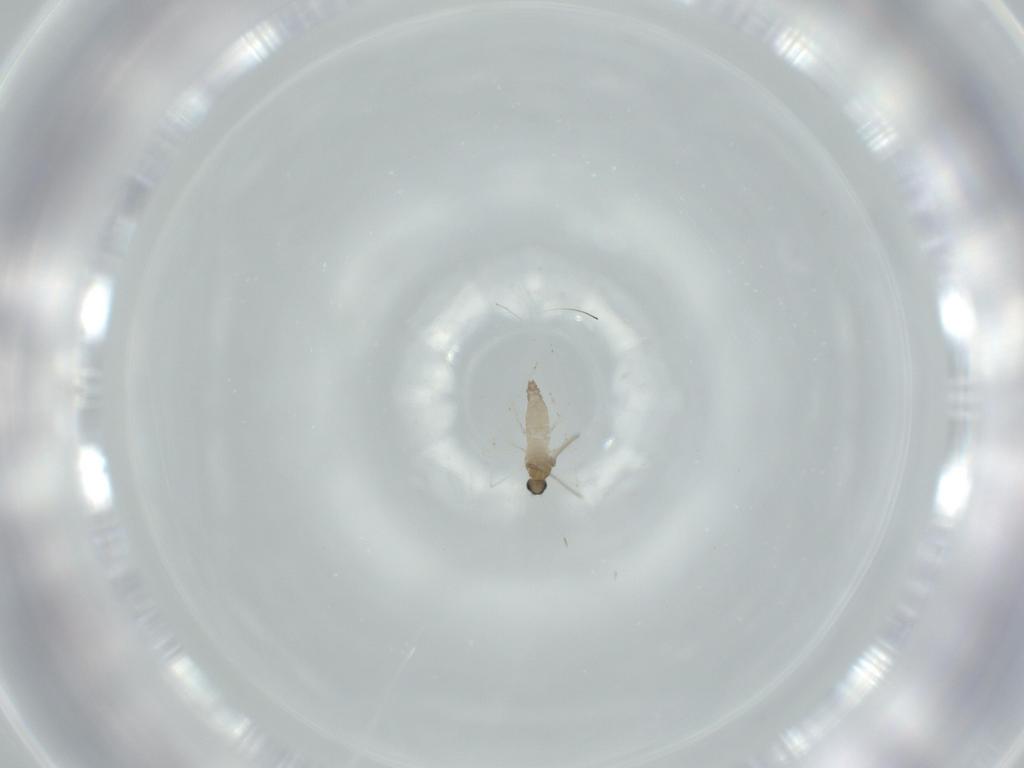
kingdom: Animalia
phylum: Arthropoda
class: Insecta
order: Diptera
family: Cecidomyiidae
